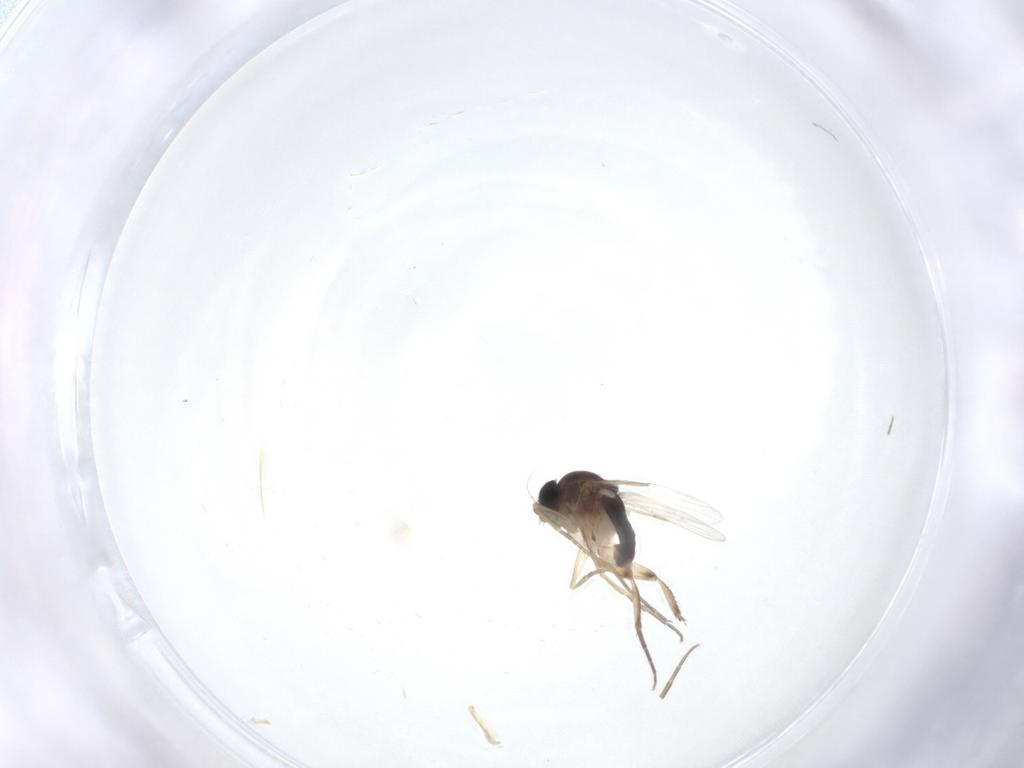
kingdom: Animalia
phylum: Arthropoda
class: Insecta
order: Diptera
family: Phoridae
